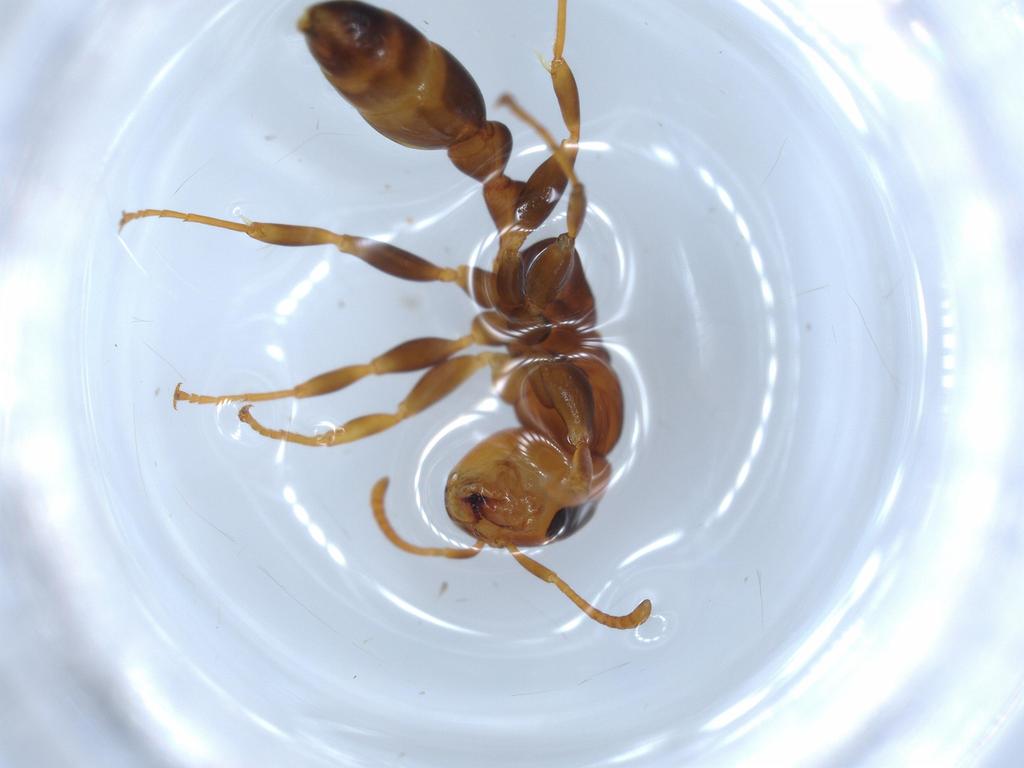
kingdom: Animalia
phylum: Arthropoda
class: Insecta
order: Hymenoptera
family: Formicidae
